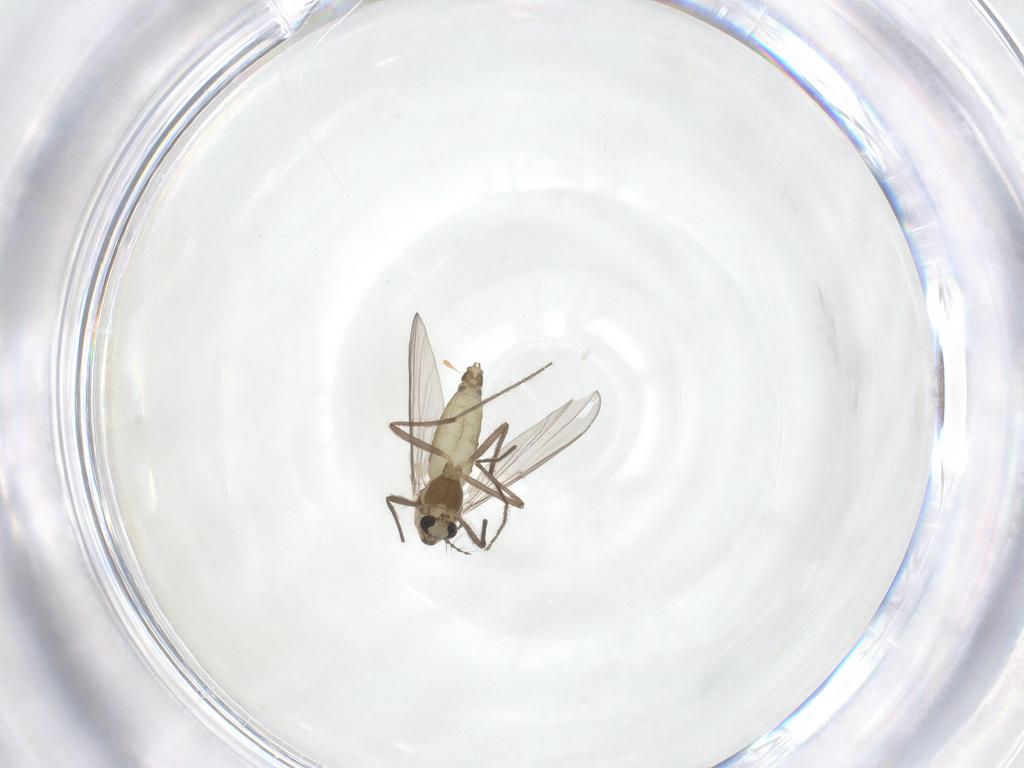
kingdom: Animalia
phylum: Arthropoda
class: Insecta
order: Diptera
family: Chironomidae
